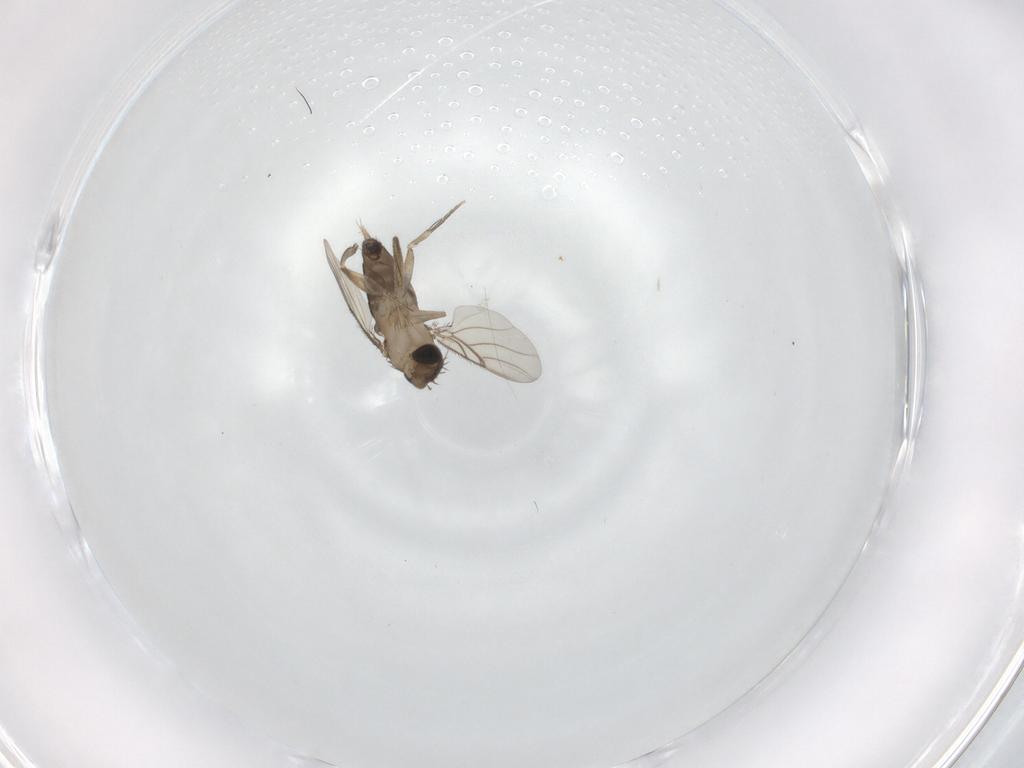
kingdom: Animalia
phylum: Arthropoda
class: Insecta
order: Diptera
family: Phoridae
